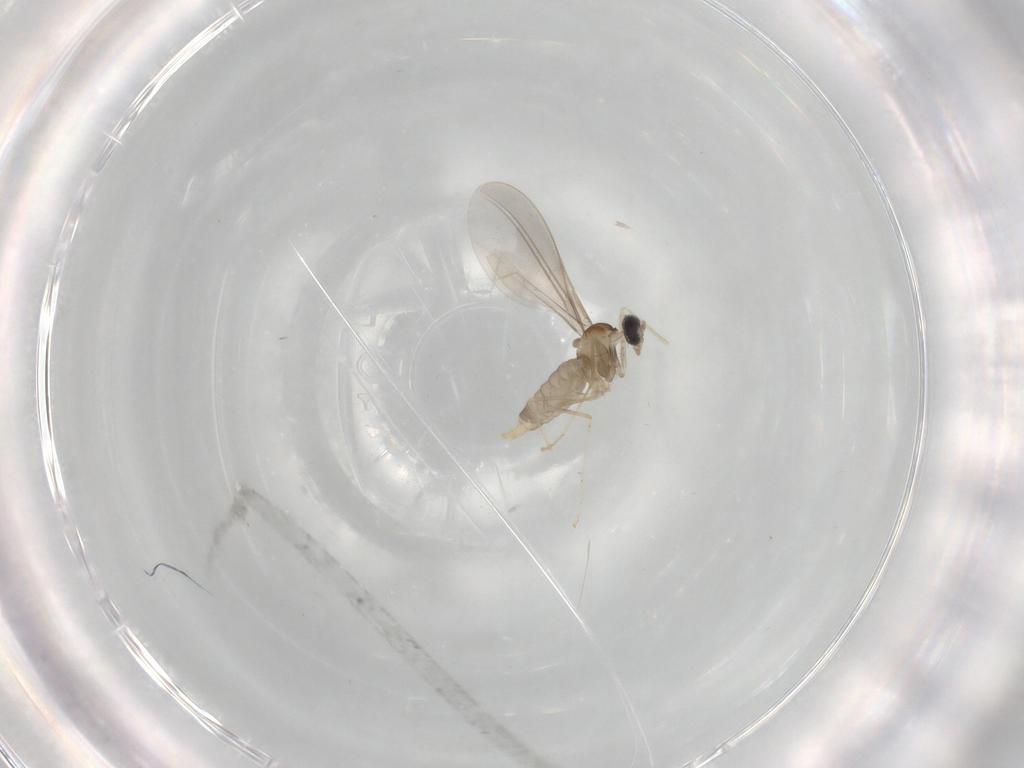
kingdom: Animalia
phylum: Arthropoda
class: Insecta
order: Diptera
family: Cecidomyiidae
